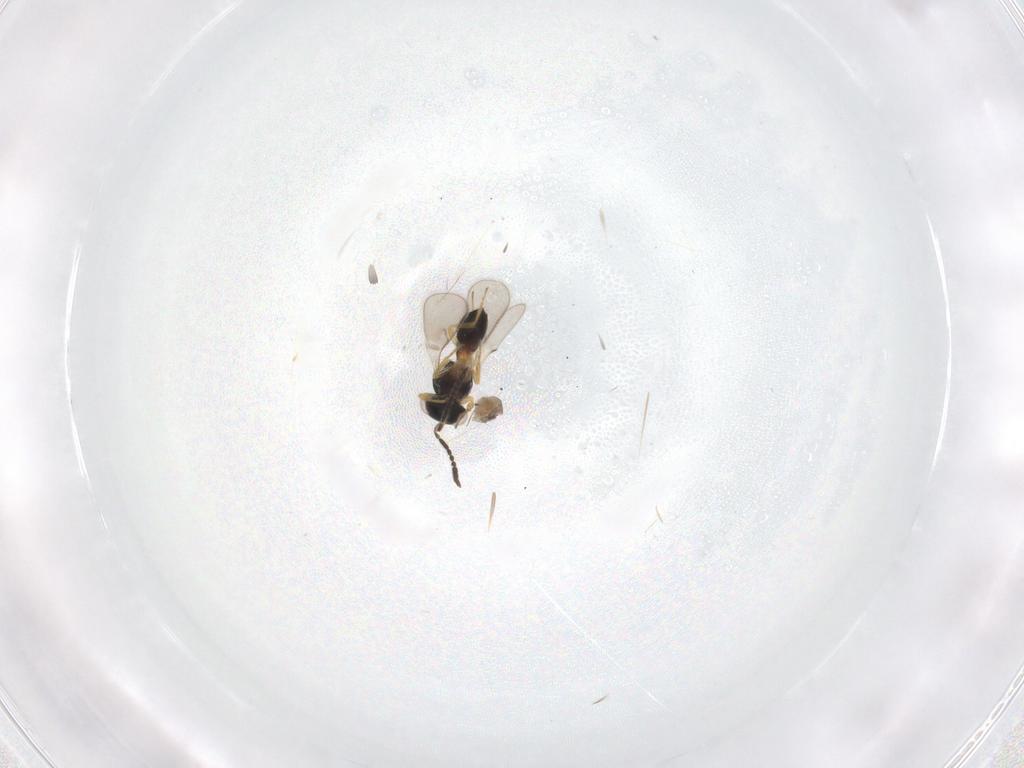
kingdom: Animalia
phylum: Arthropoda
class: Insecta
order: Hymenoptera
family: Scelionidae
